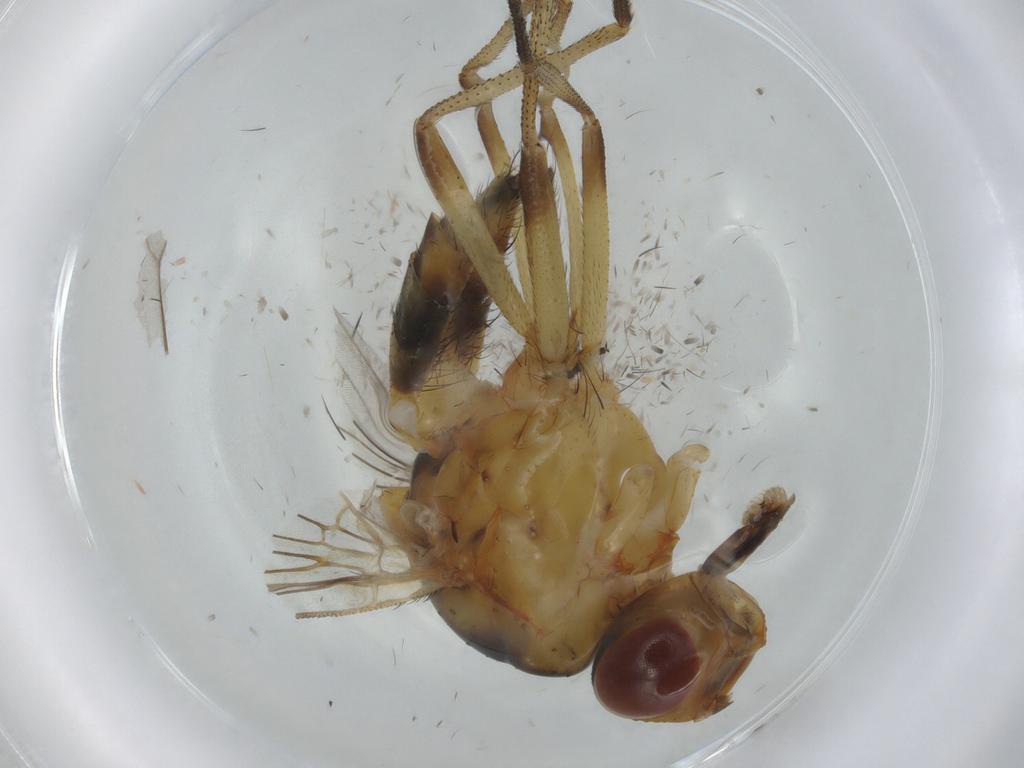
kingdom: Animalia
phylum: Arthropoda
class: Insecta
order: Diptera
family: Anthomyiidae
